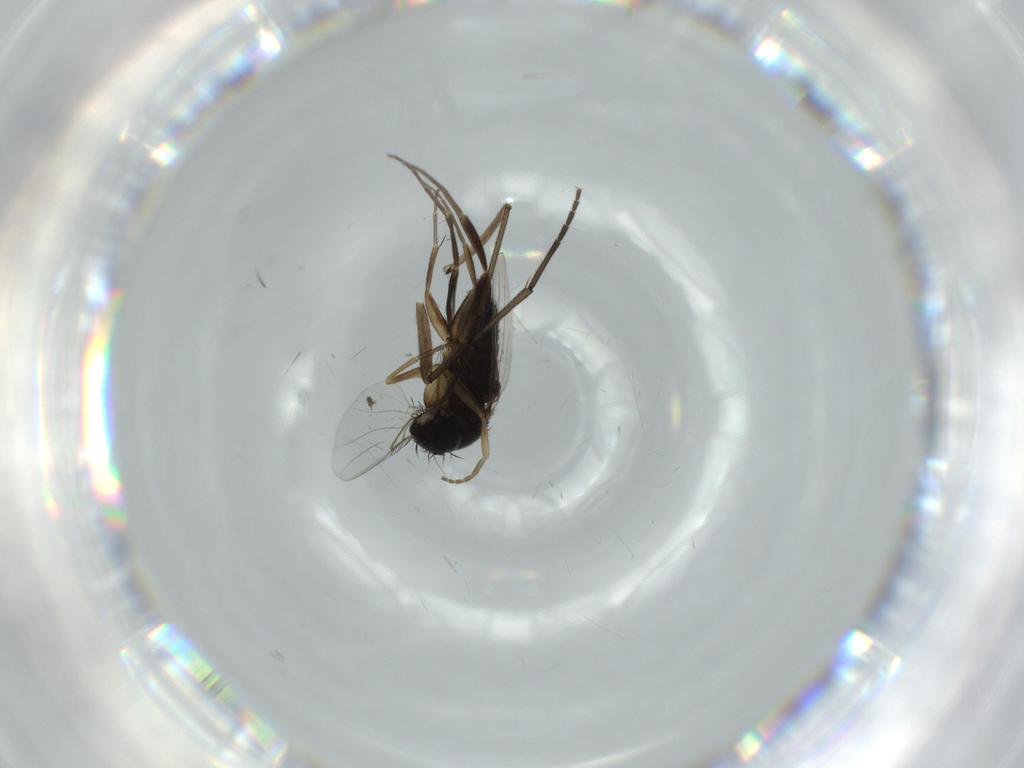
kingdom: Animalia
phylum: Arthropoda
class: Insecta
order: Diptera
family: Phoridae
